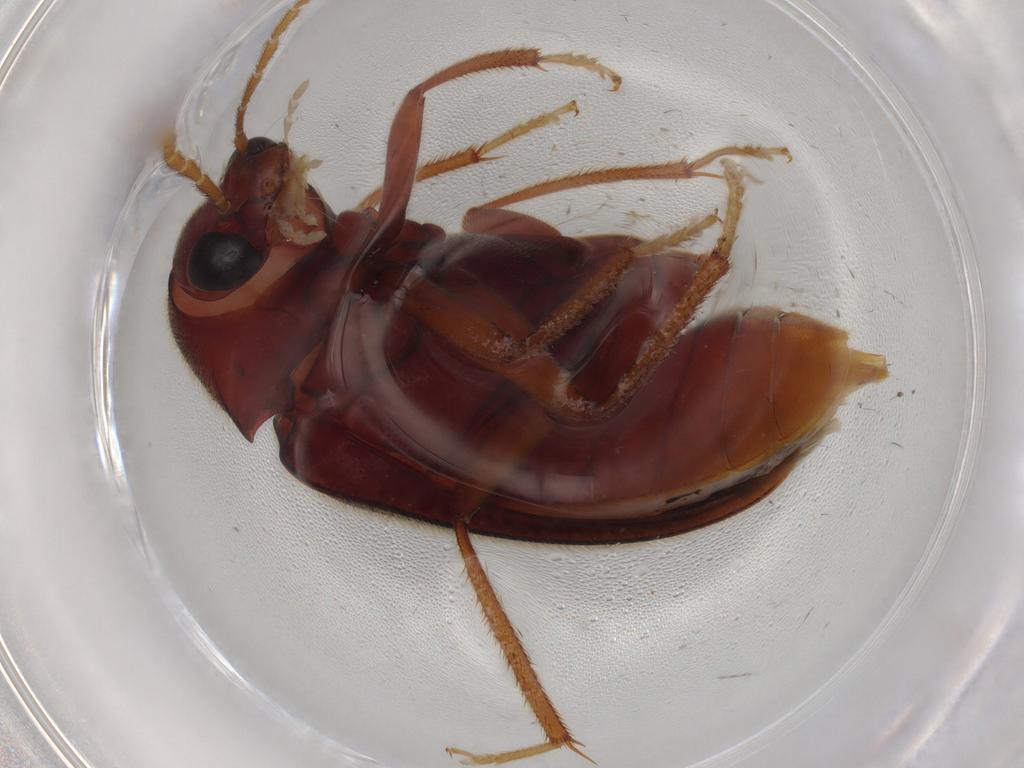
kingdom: Animalia
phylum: Arthropoda
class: Insecta
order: Coleoptera
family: Ptilodactylidae
